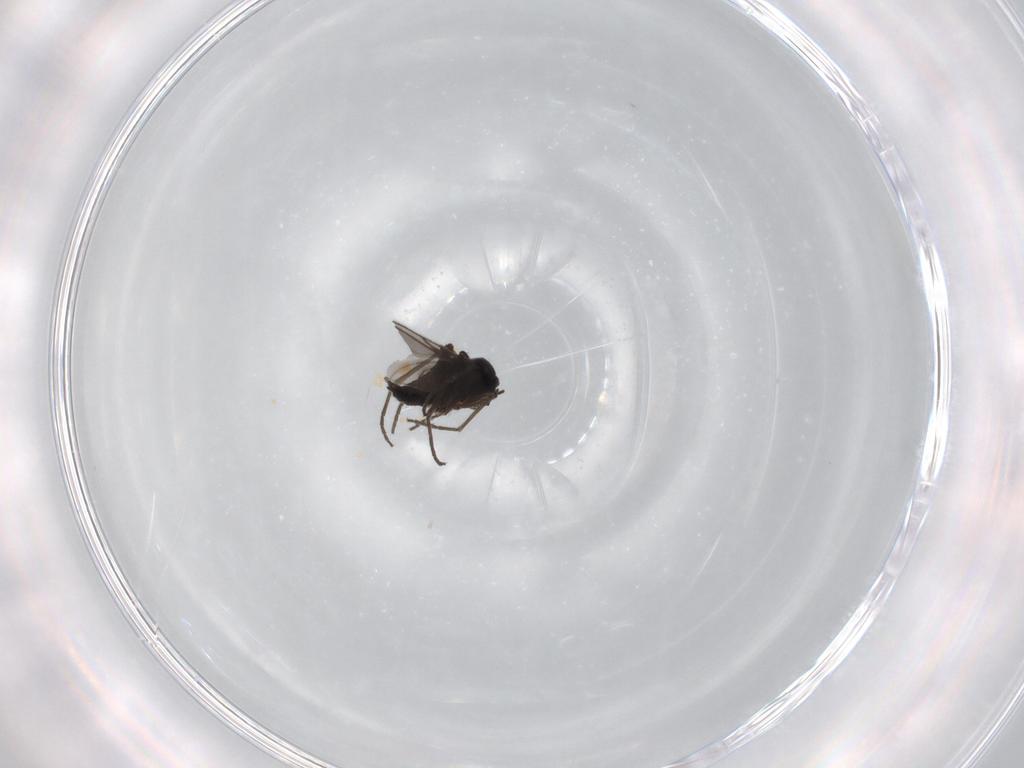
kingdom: Animalia
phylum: Arthropoda
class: Insecta
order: Diptera
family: Sciaridae
